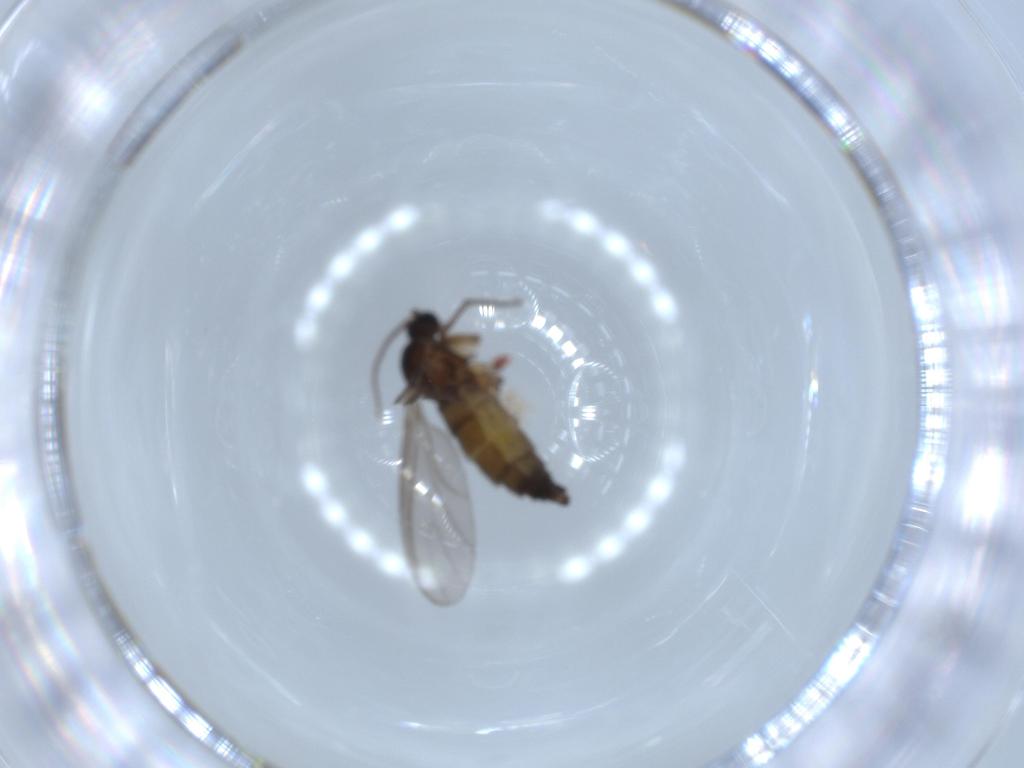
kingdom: Animalia
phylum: Arthropoda
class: Insecta
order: Diptera
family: Sciaridae
